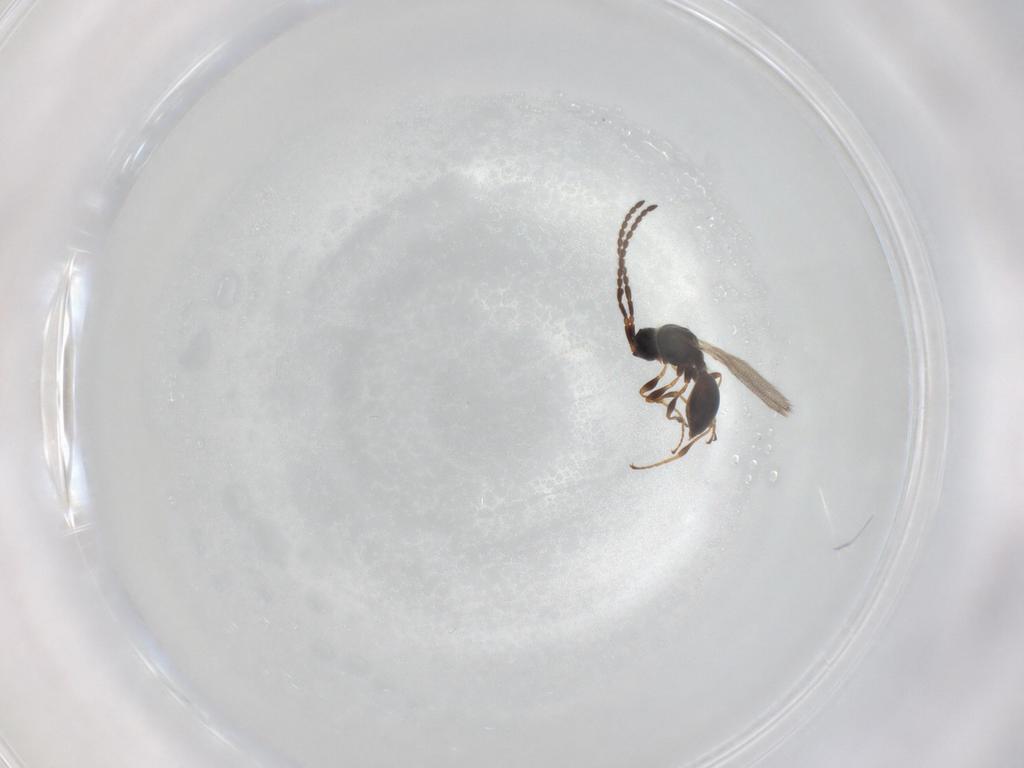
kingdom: Animalia
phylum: Arthropoda
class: Insecta
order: Hymenoptera
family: Diapriidae
